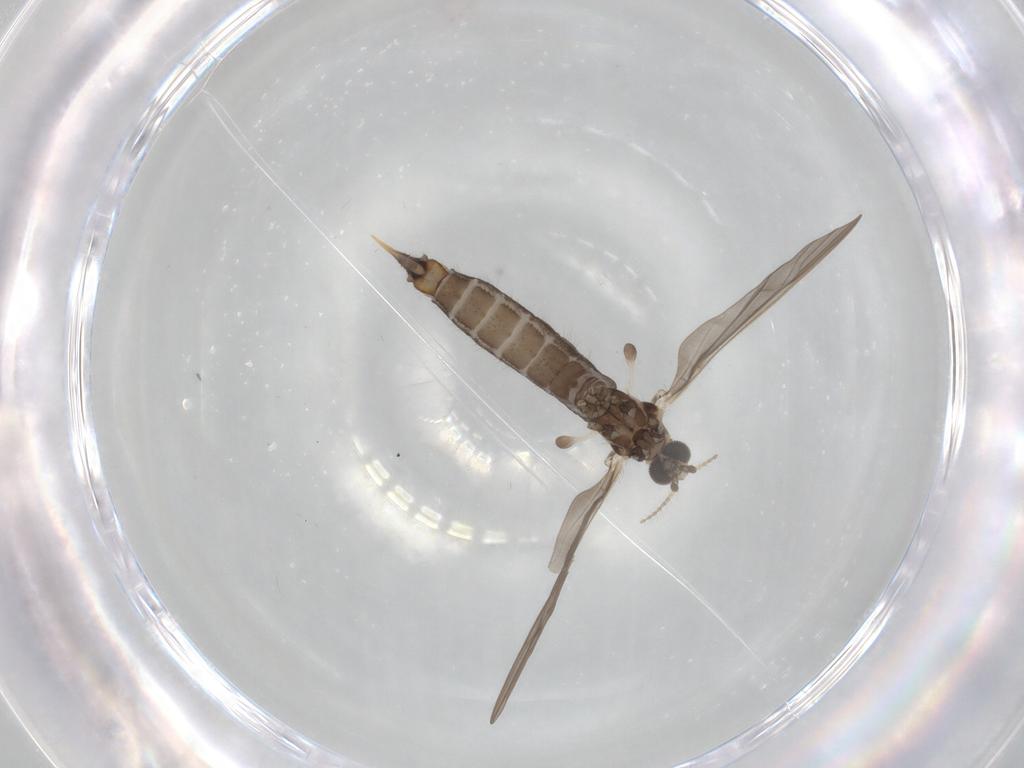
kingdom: Animalia
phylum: Arthropoda
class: Insecta
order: Diptera
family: Limoniidae
